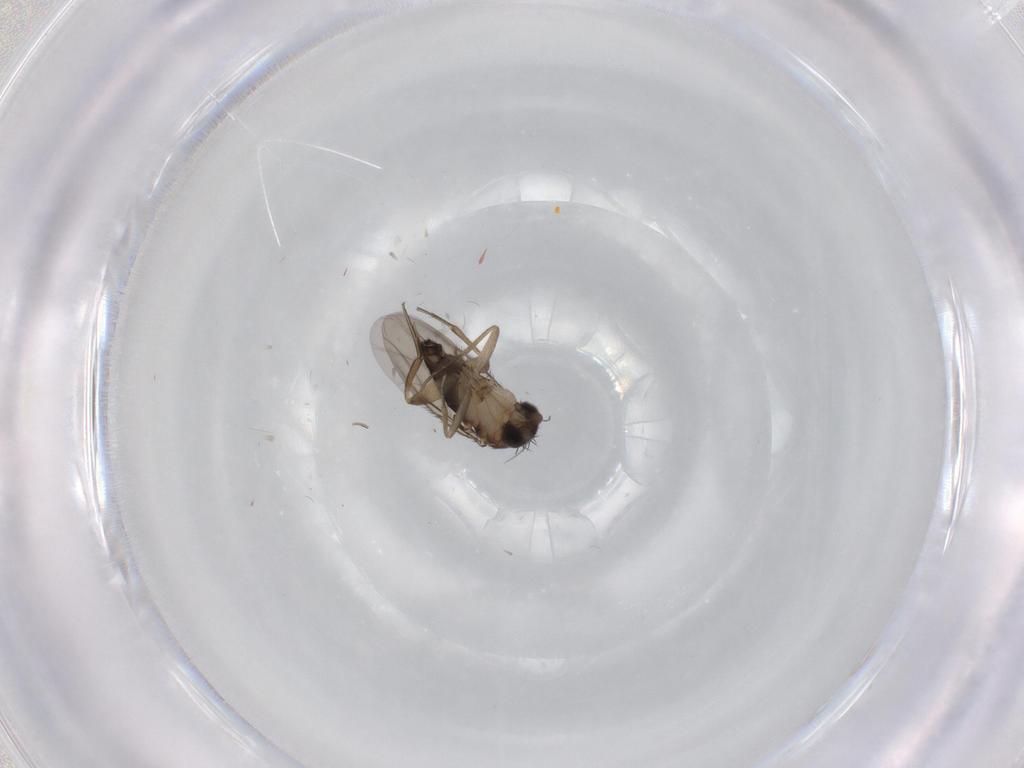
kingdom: Animalia
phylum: Arthropoda
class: Insecta
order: Diptera
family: Phoridae
